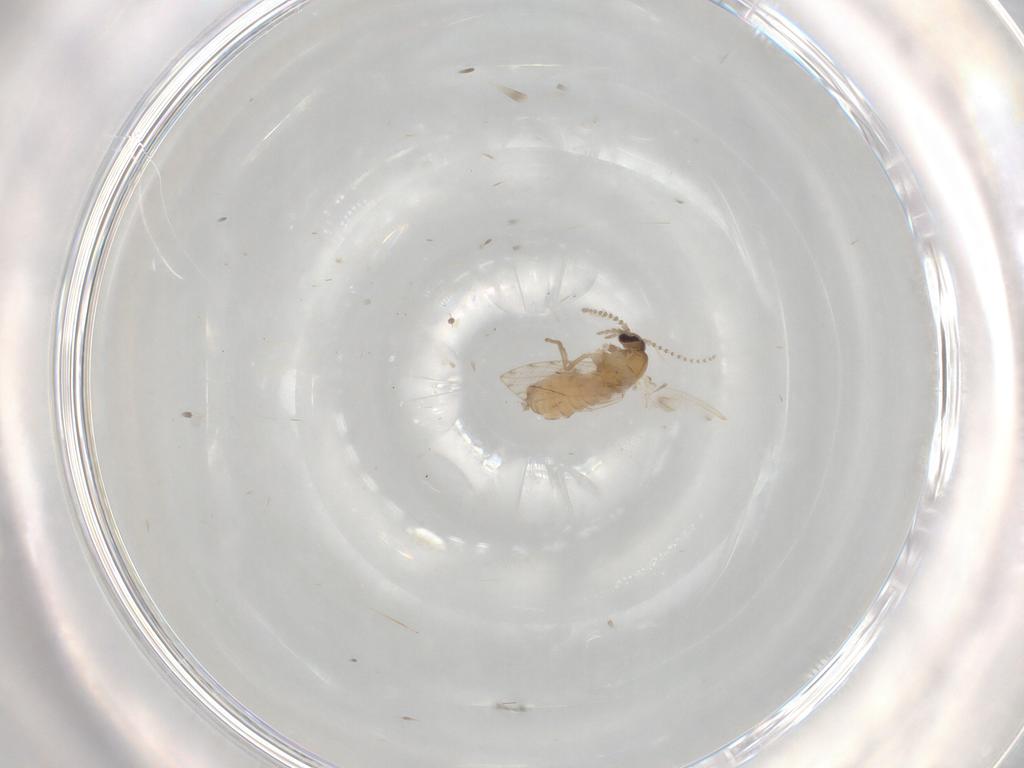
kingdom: Animalia
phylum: Arthropoda
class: Insecta
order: Diptera
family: Psychodidae
